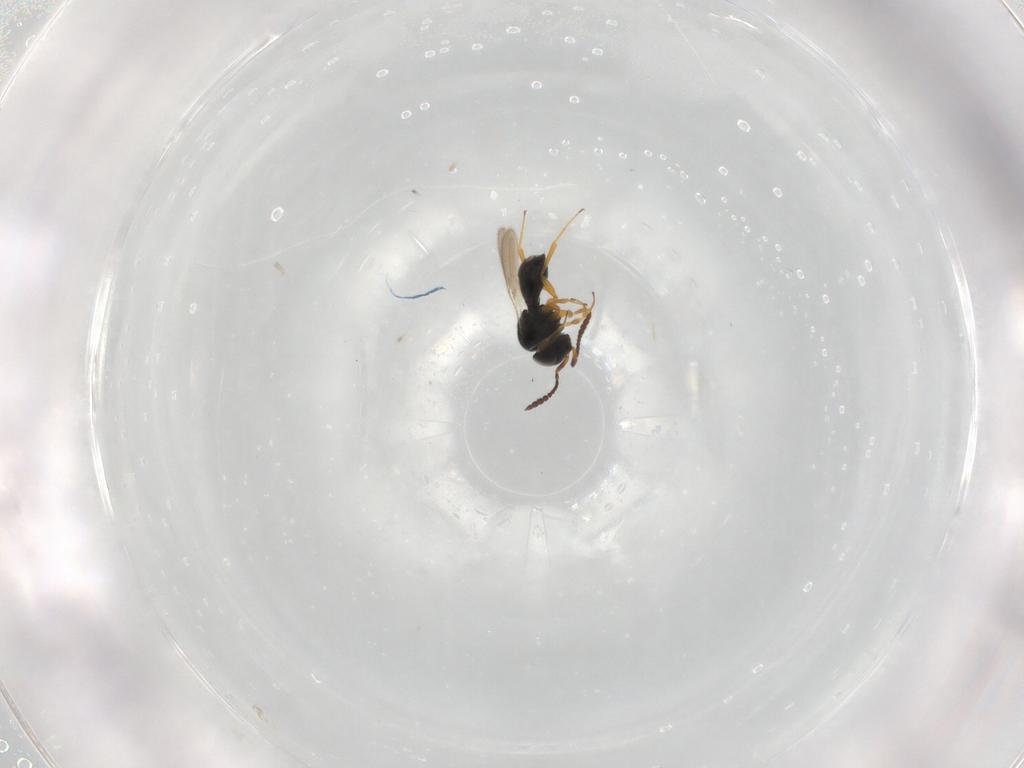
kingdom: Animalia
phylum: Arthropoda
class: Insecta
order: Hymenoptera
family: Scelionidae
